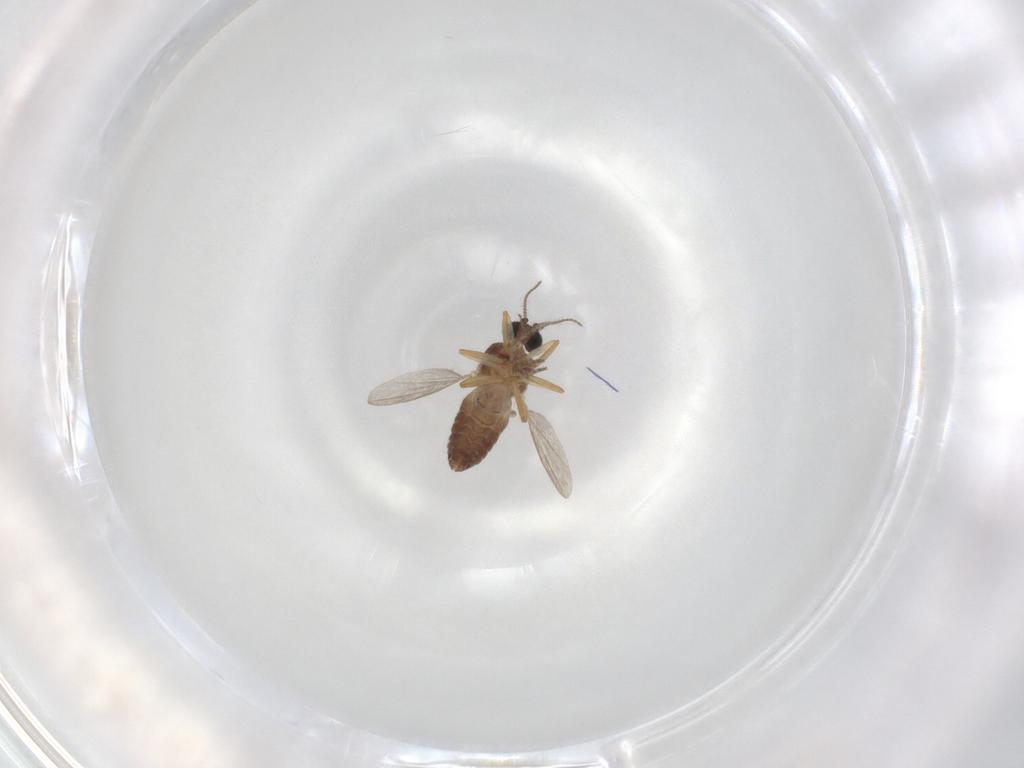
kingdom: Animalia
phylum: Arthropoda
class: Insecta
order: Diptera
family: Ceratopogonidae
